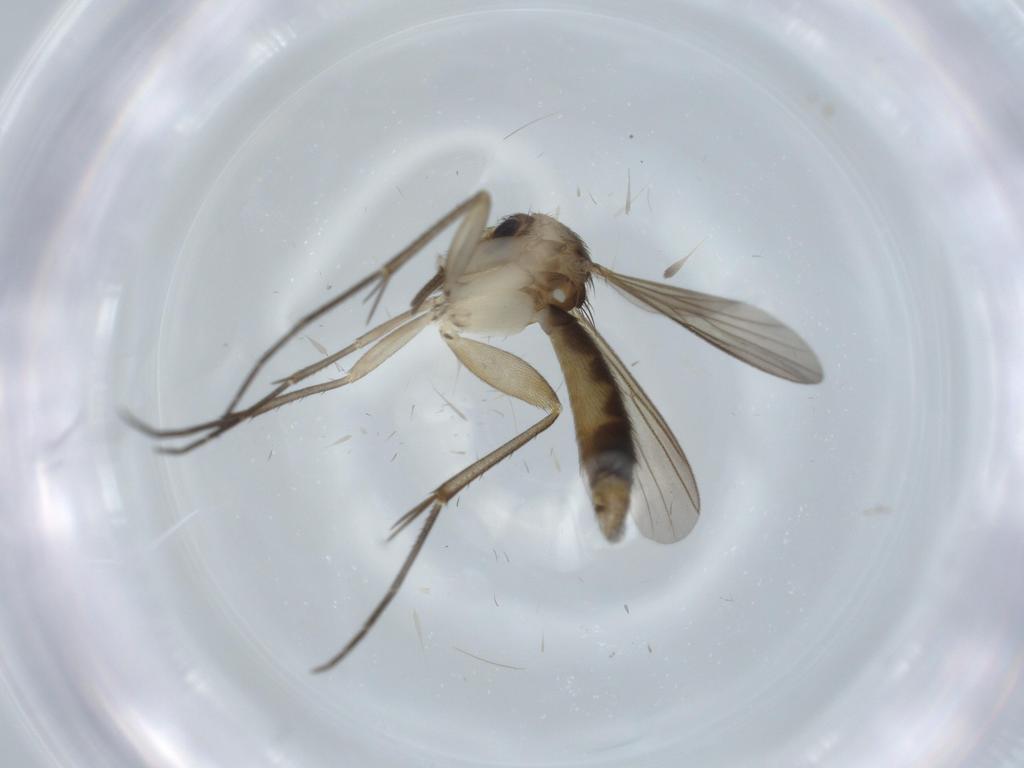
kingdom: Animalia
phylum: Arthropoda
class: Insecta
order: Diptera
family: Mycetophilidae
